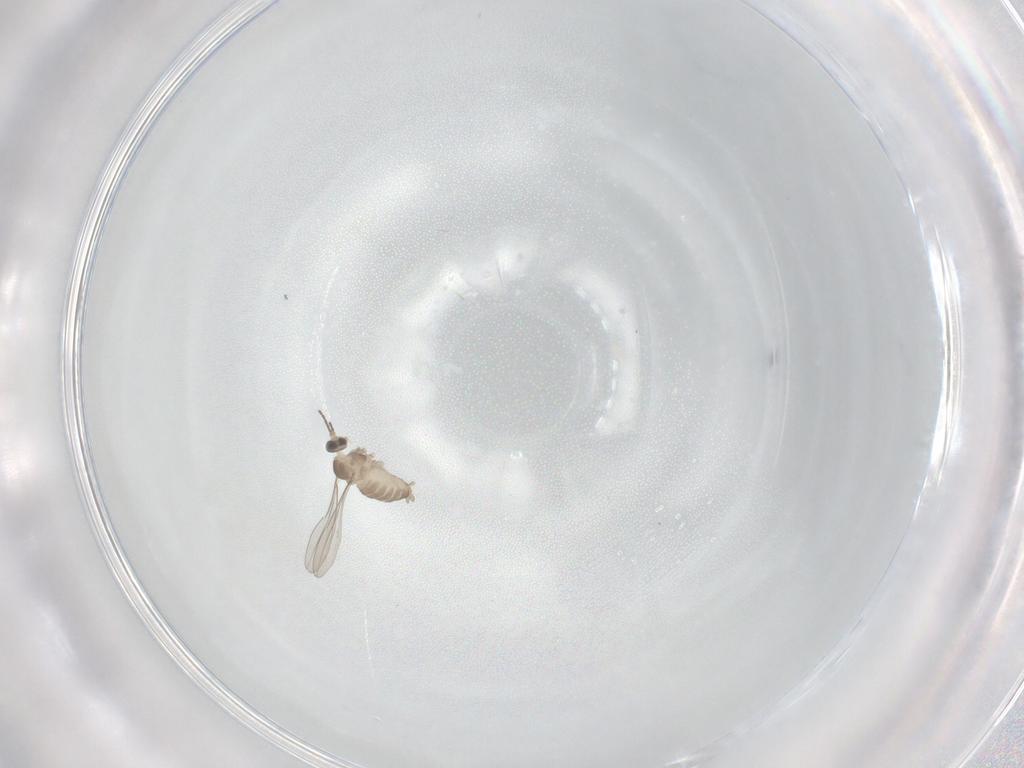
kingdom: Animalia
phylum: Arthropoda
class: Insecta
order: Diptera
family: Cecidomyiidae
